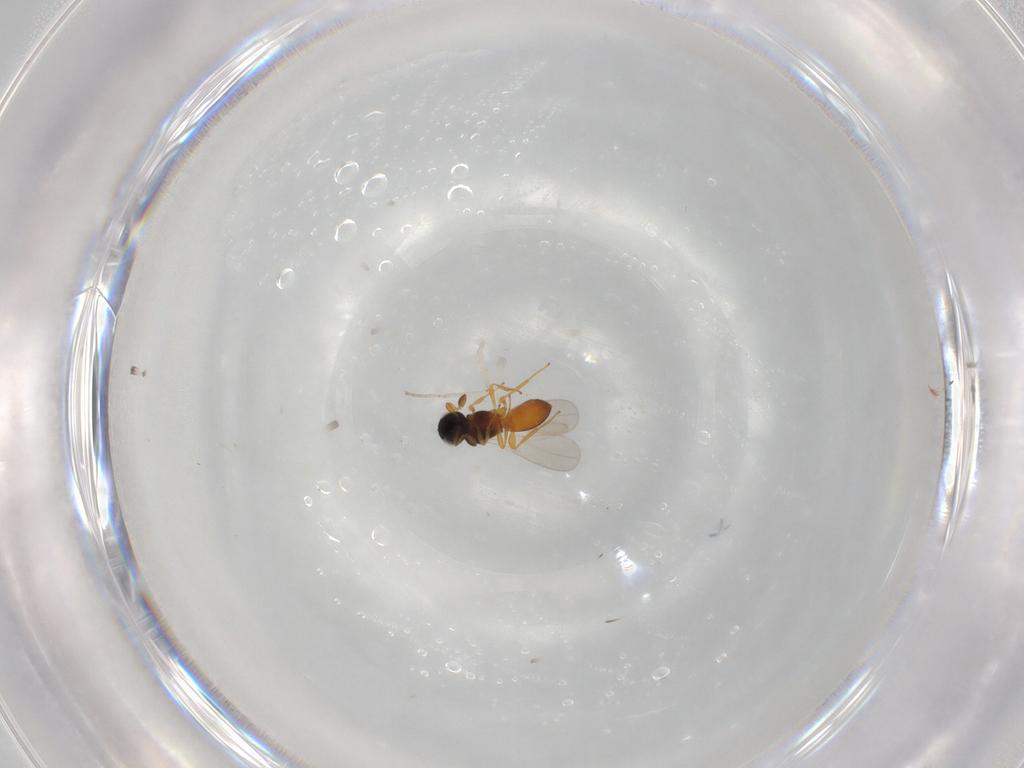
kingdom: Animalia
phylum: Arthropoda
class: Insecta
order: Hymenoptera
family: Platygastridae
